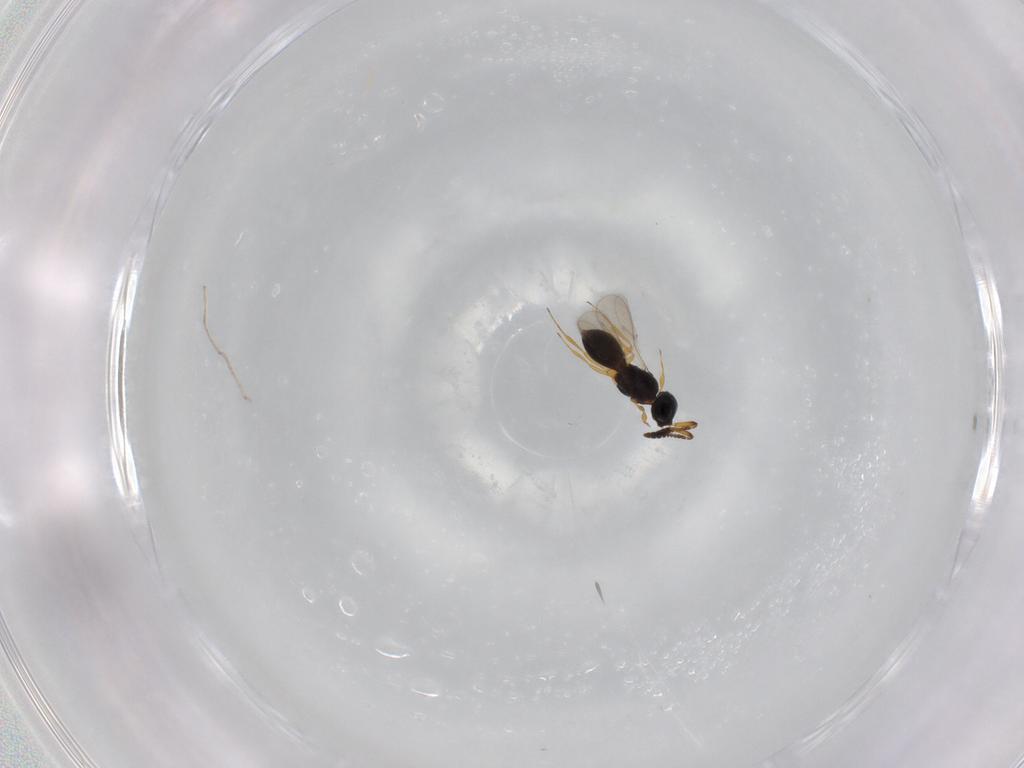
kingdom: Animalia
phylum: Arthropoda
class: Insecta
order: Hymenoptera
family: Scelionidae
